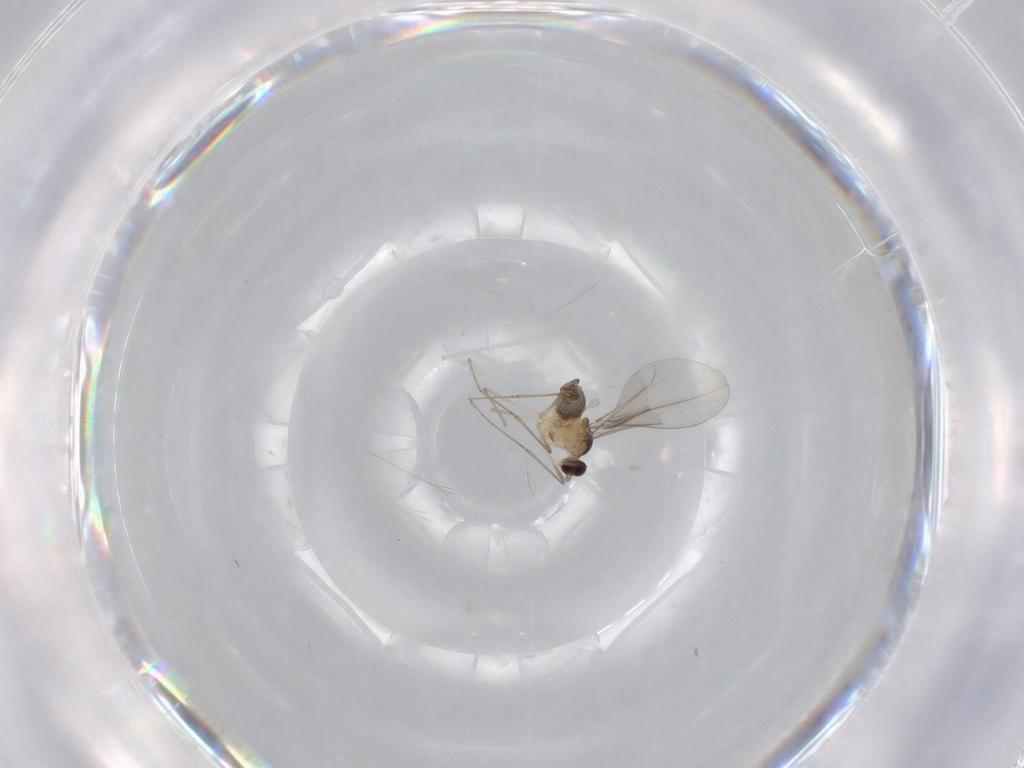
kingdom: Animalia
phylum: Arthropoda
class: Insecta
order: Diptera
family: Cecidomyiidae
